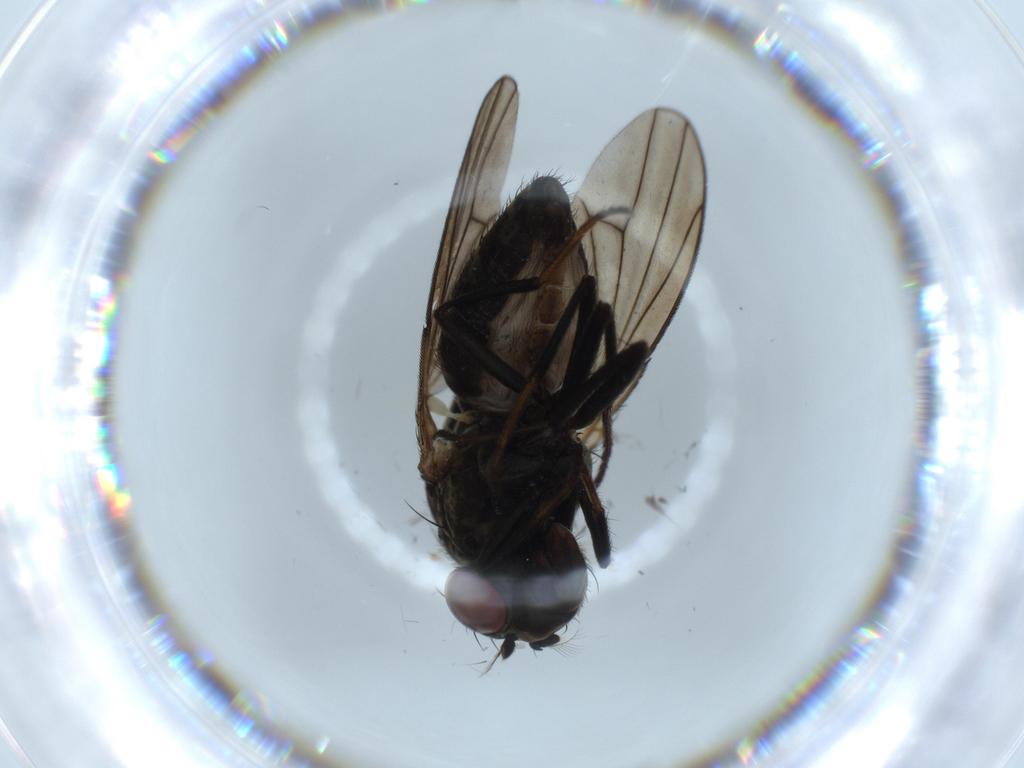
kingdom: Animalia
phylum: Arthropoda
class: Insecta
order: Diptera
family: Ephydridae
